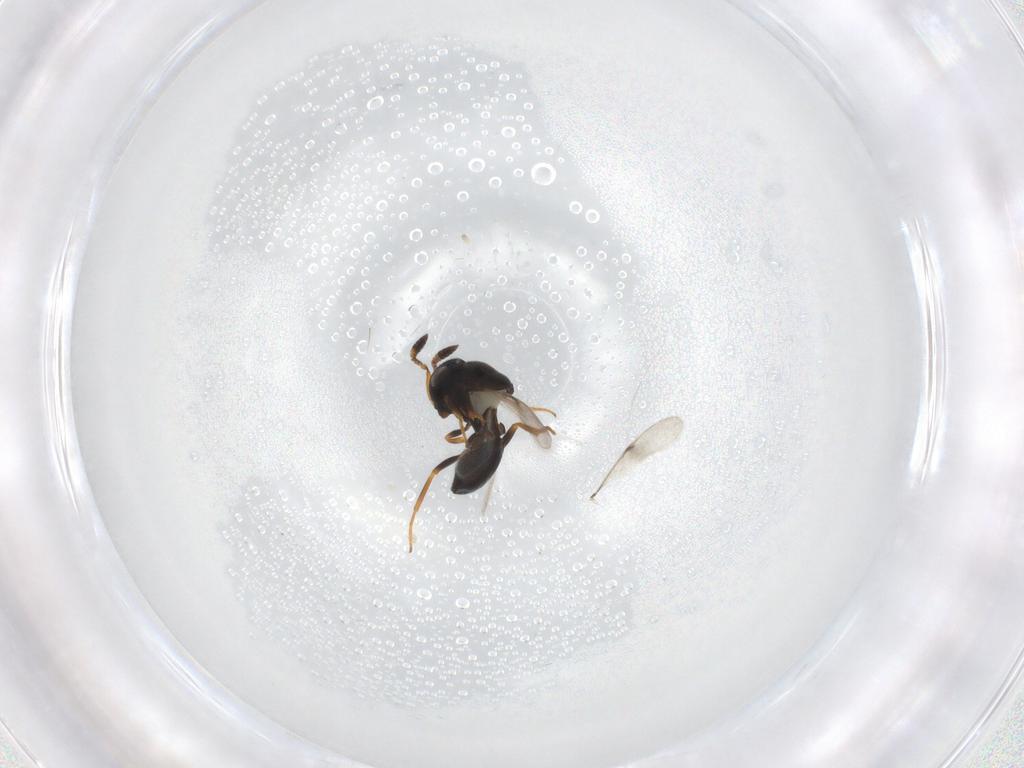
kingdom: Animalia
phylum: Arthropoda
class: Insecta
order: Hymenoptera
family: Scelionidae
